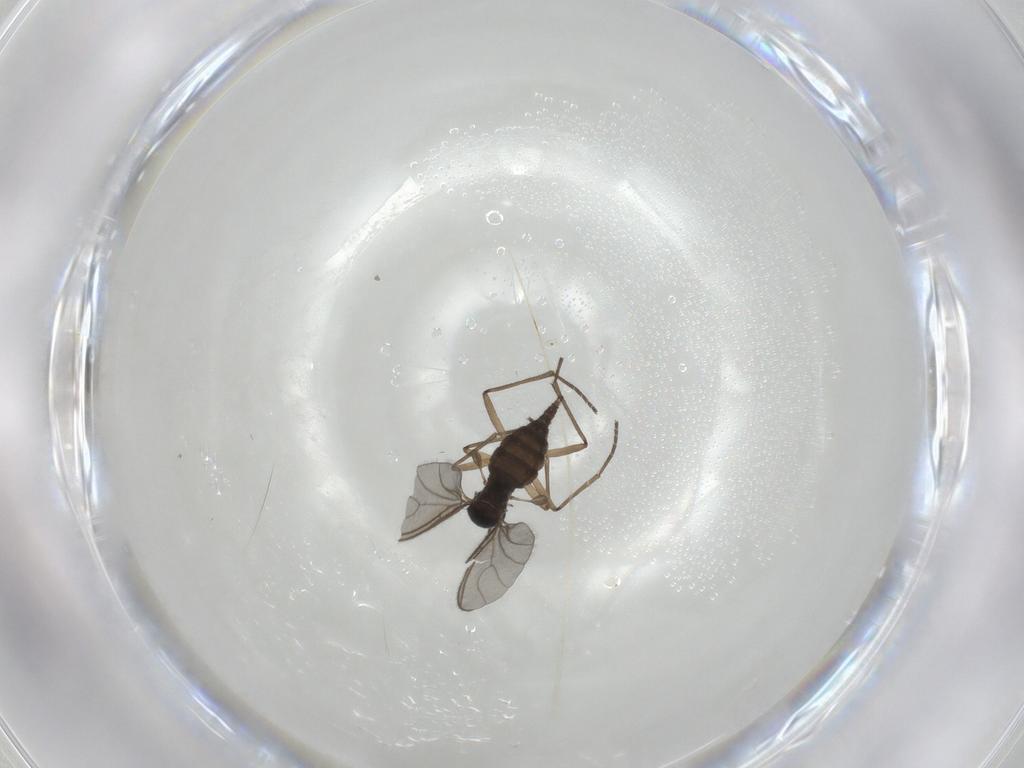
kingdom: Animalia
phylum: Arthropoda
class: Insecta
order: Diptera
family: Sciaridae
